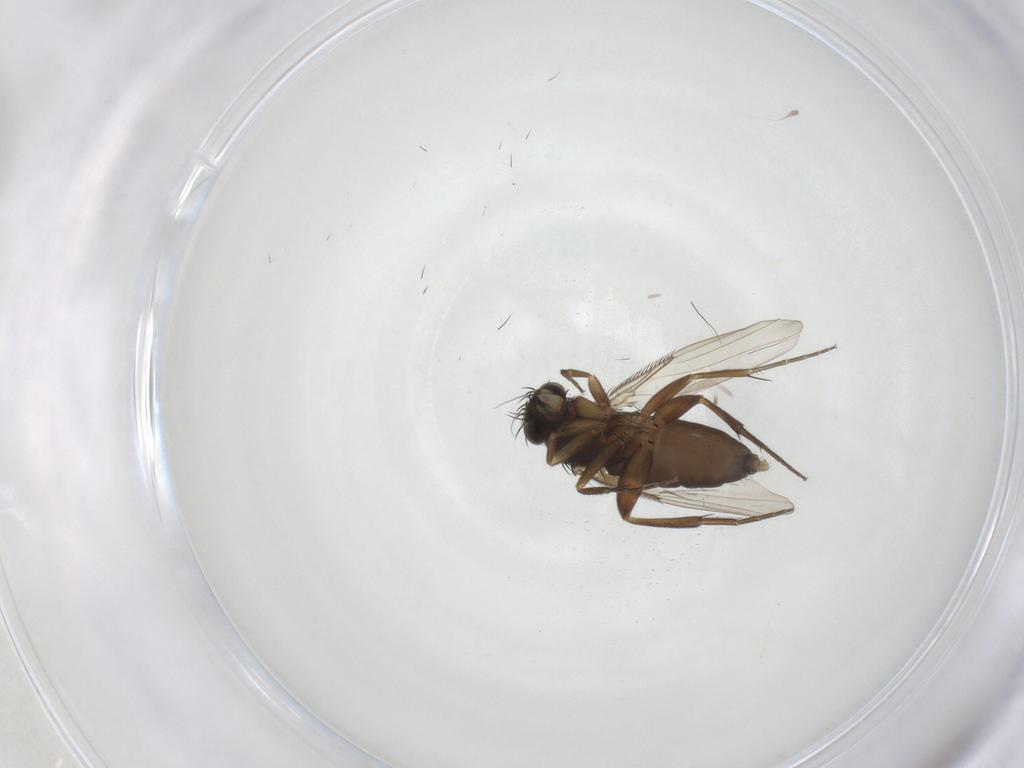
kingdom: Animalia
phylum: Arthropoda
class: Insecta
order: Diptera
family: Phoridae
